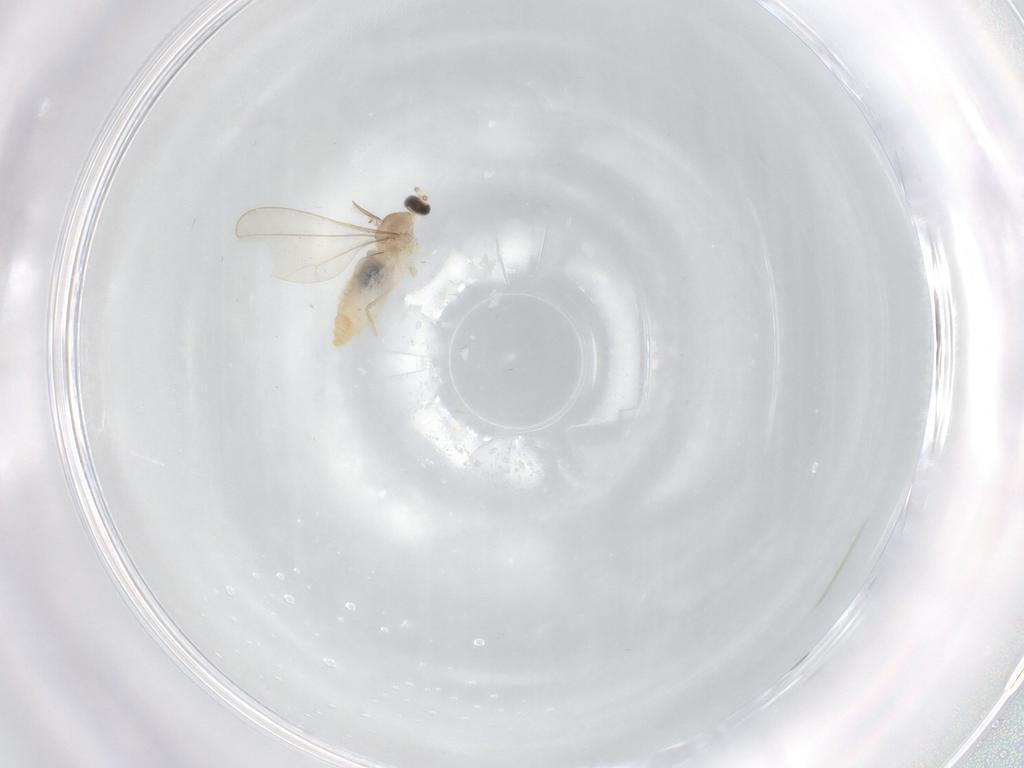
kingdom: Animalia
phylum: Arthropoda
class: Insecta
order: Diptera
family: Cecidomyiidae
